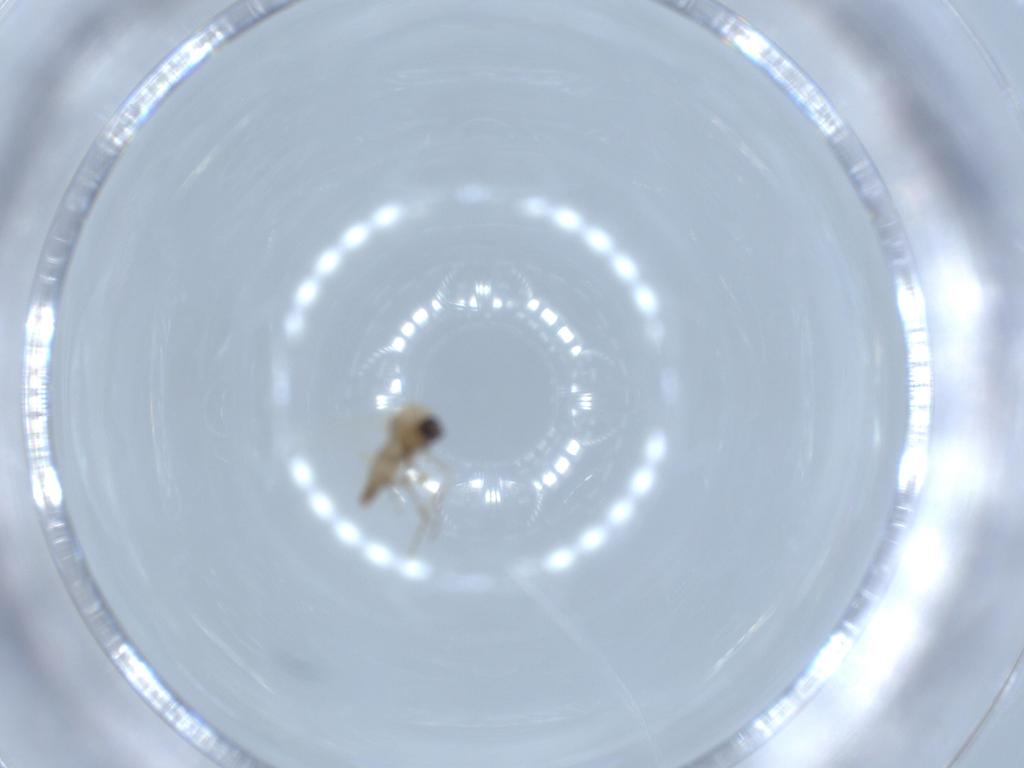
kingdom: Animalia
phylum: Arthropoda
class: Insecta
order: Diptera
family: Ceratopogonidae
